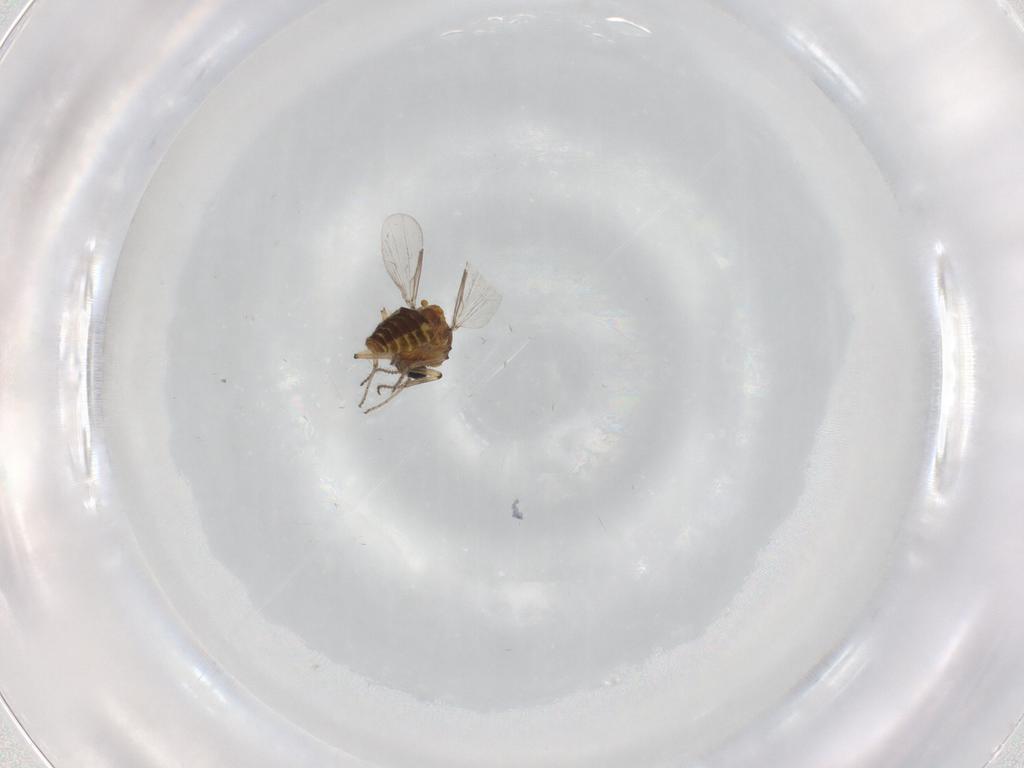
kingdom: Animalia
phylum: Arthropoda
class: Insecta
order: Diptera
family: Ceratopogonidae
